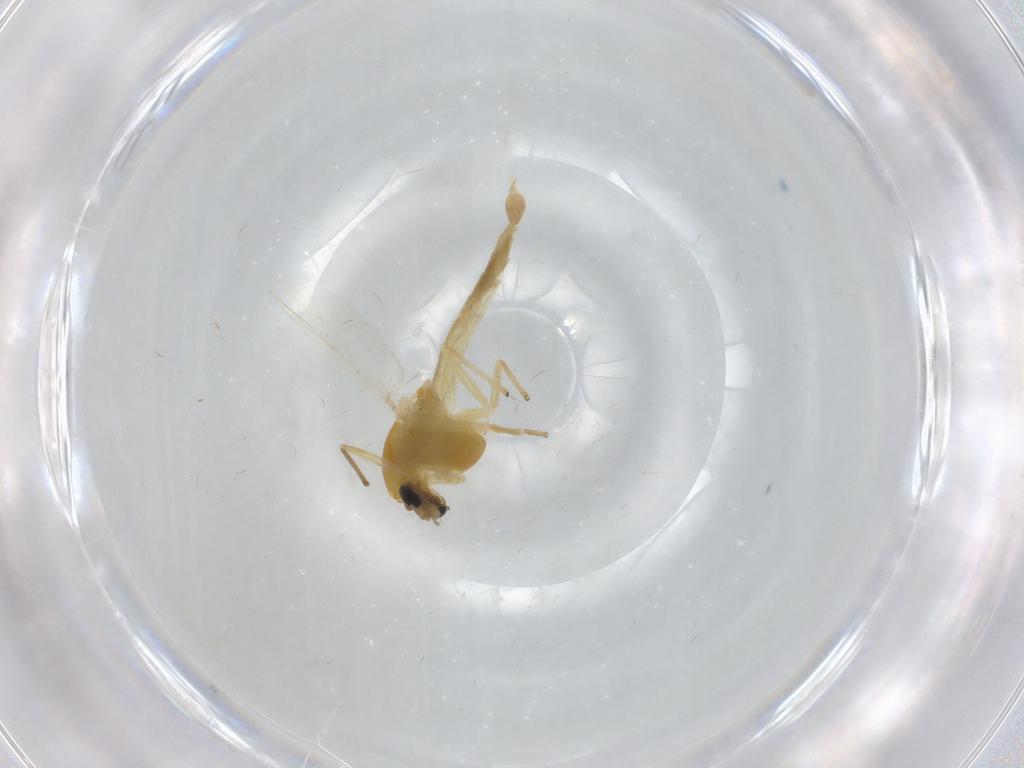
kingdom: Animalia
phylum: Arthropoda
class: Insecta
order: Diptera
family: Chironomidae
